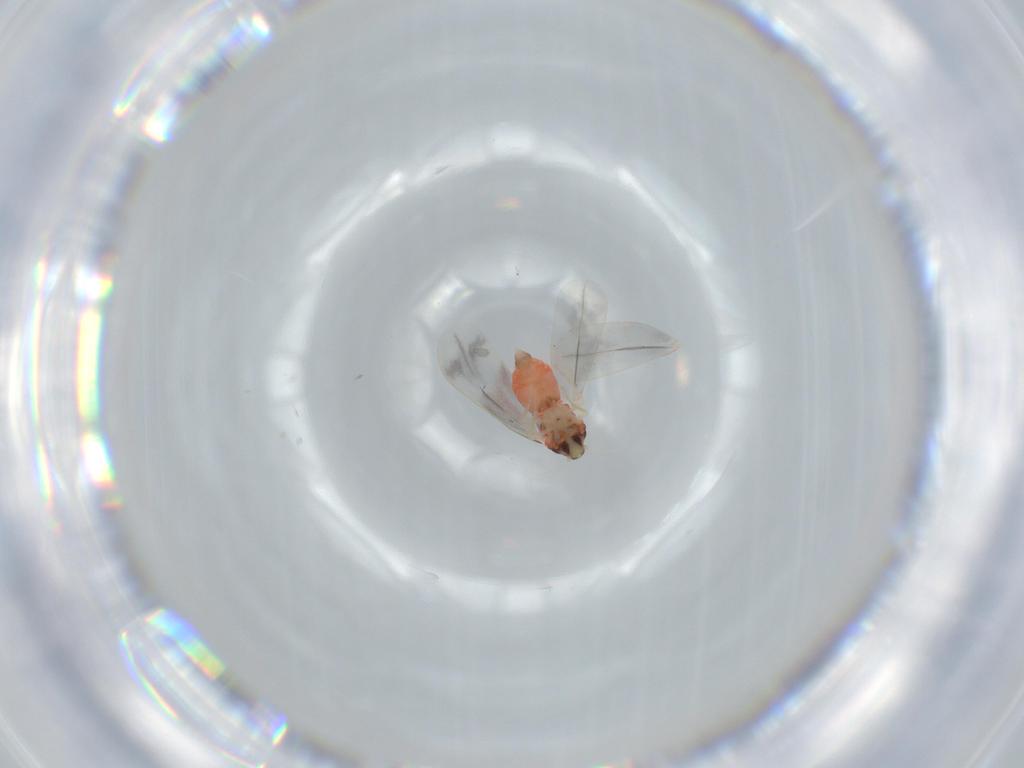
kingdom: Animalia
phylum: Arthropoda
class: Insecta
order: Hemiptera
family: Aleyrodidae
